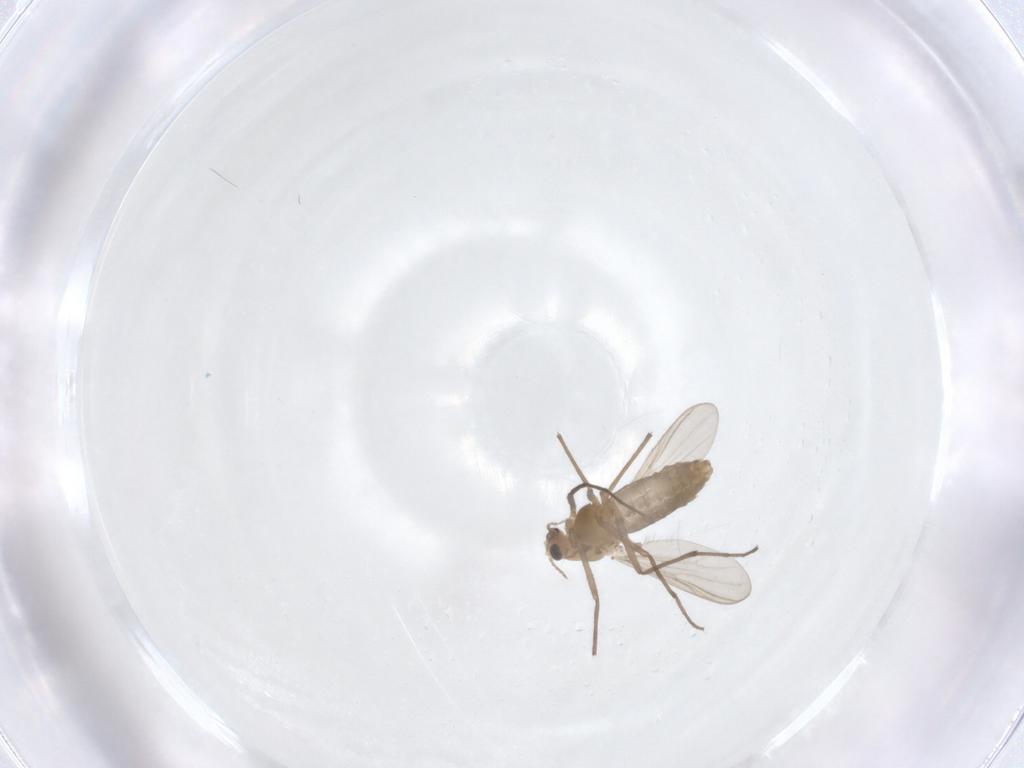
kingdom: Animalia
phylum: Arthropoda
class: Insecta
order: Diptera
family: Chironomidae
